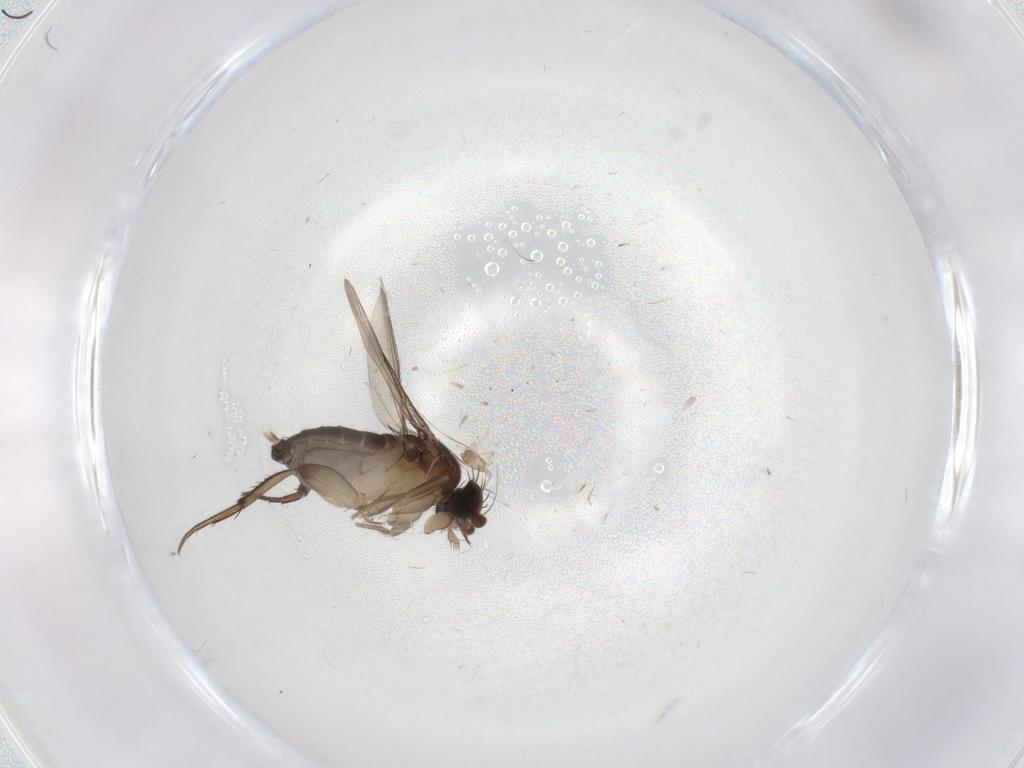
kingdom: Animalia
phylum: Arthropoda
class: Insecta
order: Diptera
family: Phoridae
